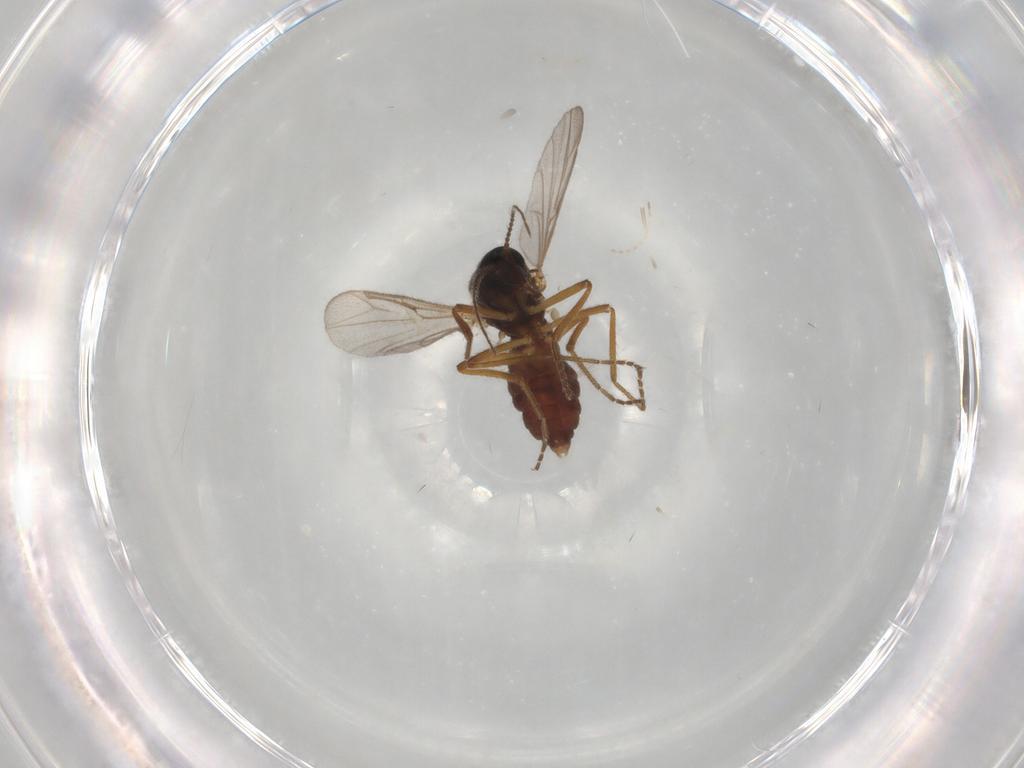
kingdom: Animalia
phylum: Arthropoda
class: Insecta
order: Diptera
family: Ceratopogonidae
